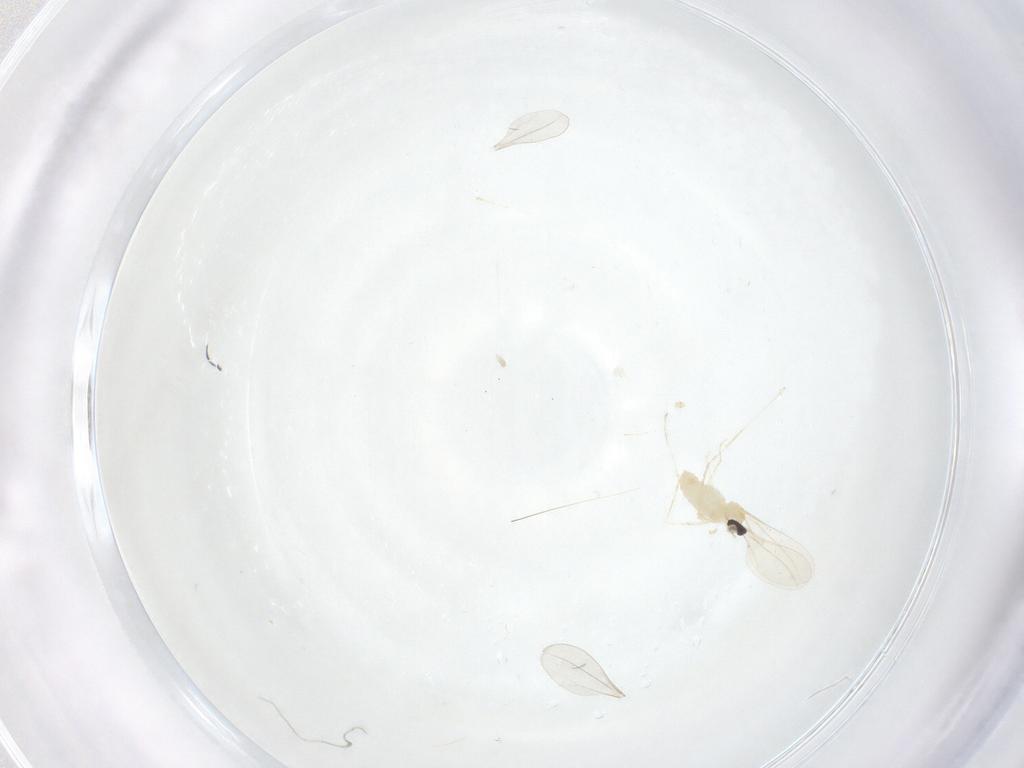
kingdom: Animalia
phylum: Arthropoda
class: Insecta
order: Diptera
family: Cecidomyiidae
